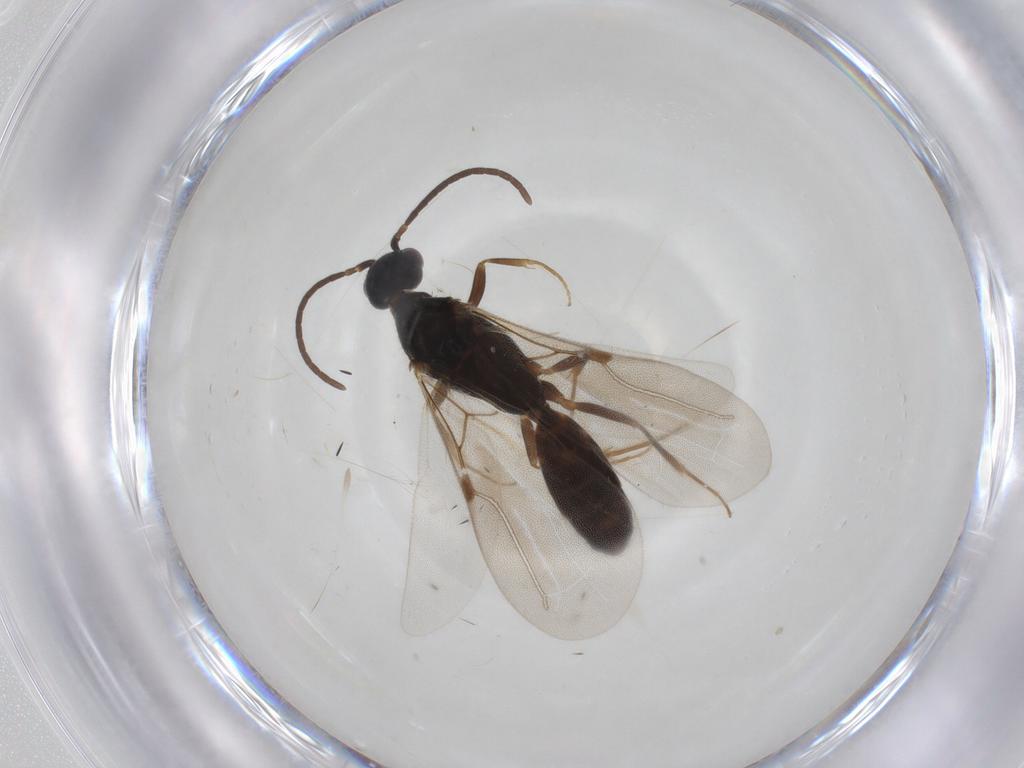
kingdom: Animalia
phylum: Arthropoda
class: Insecta
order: Hymenoptera
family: Bethylidae
